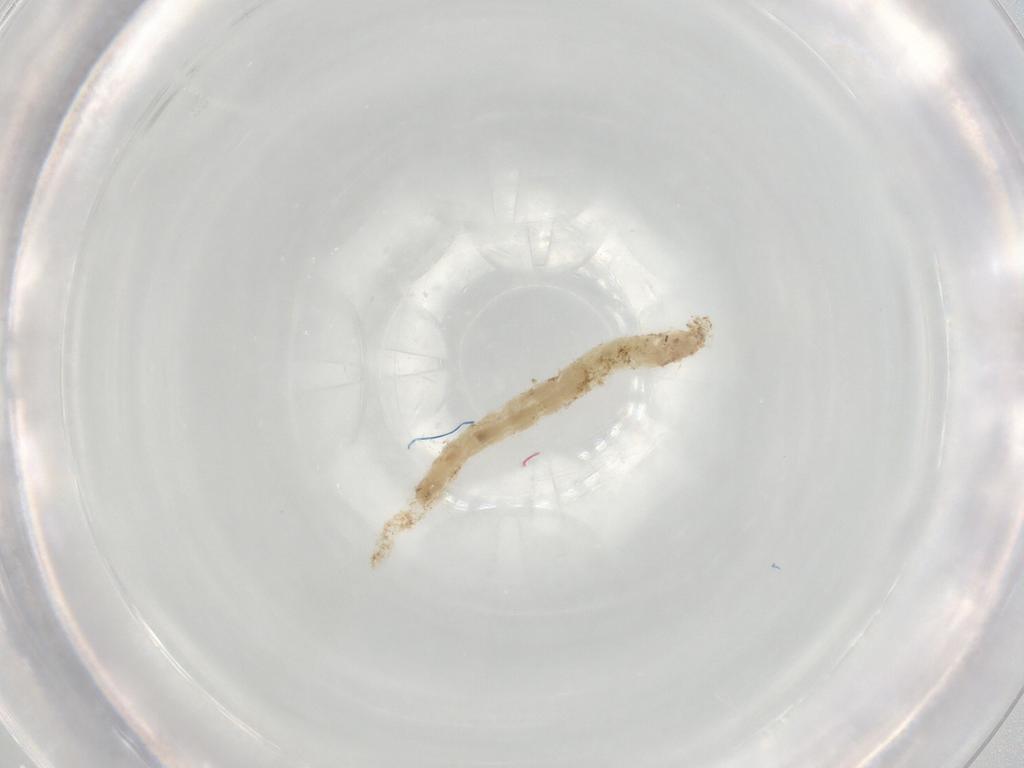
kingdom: Animalia
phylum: Arthropoda
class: Insecta
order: Diptera
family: Chironomidae
